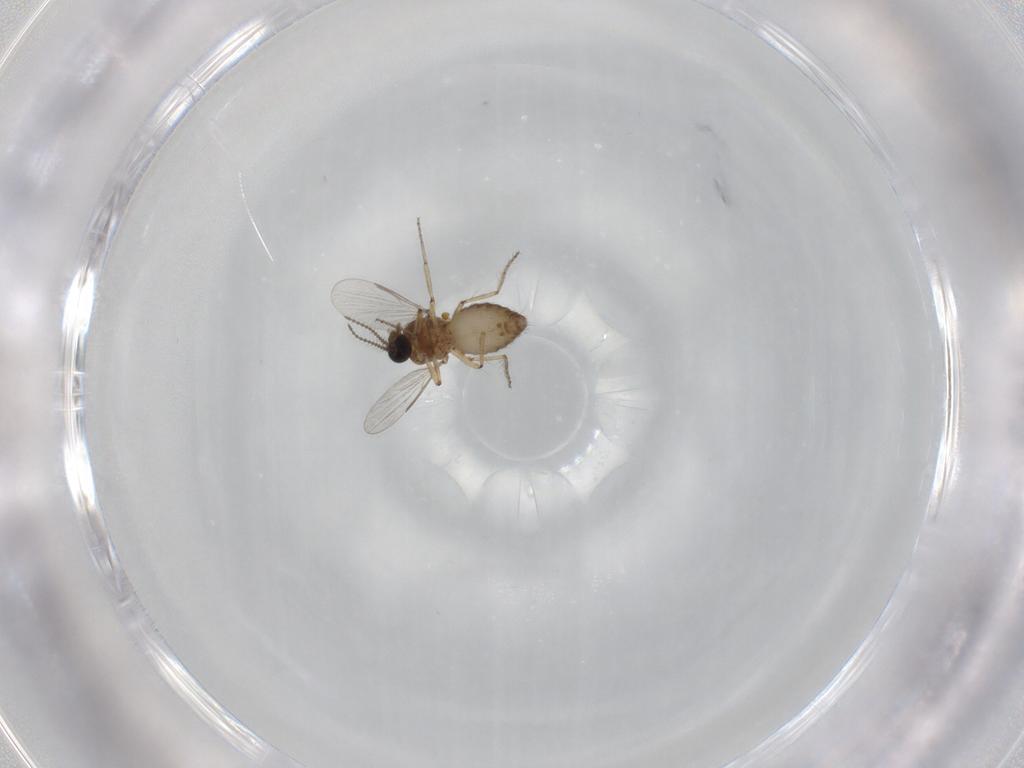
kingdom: Animalia
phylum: Arthropoda
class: Insecta
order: Diptera
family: Ceratopogonidae
